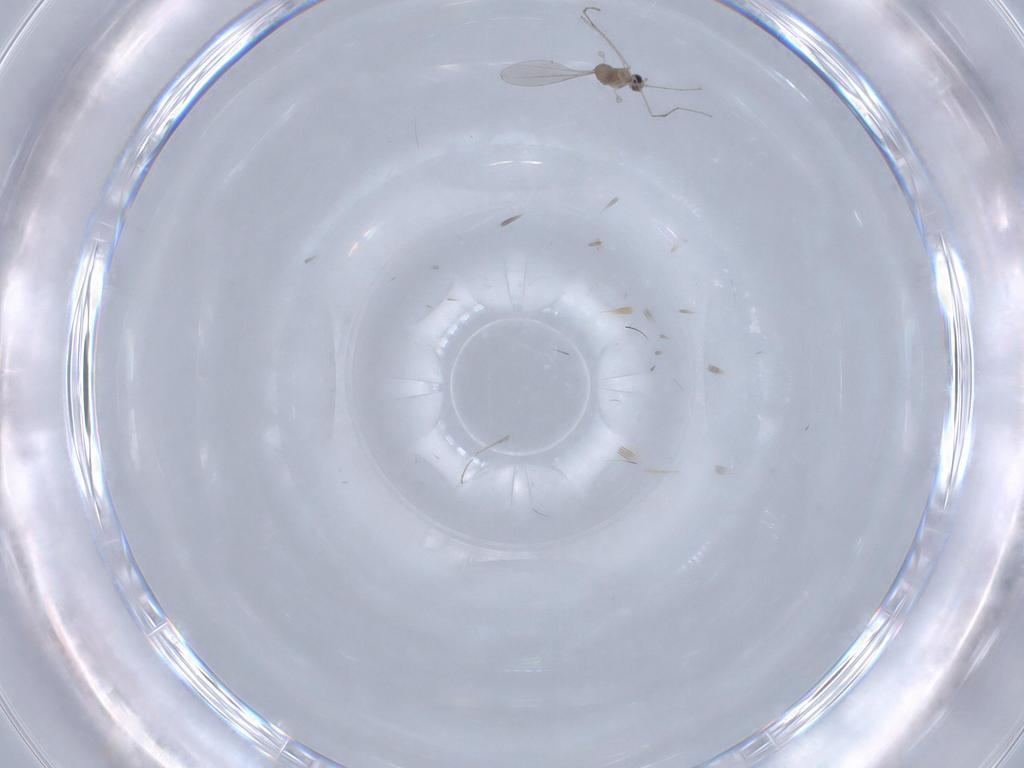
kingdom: Animalia
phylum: Arthropoda
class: Insecta
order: Diptera
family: Cecidomyiidae
